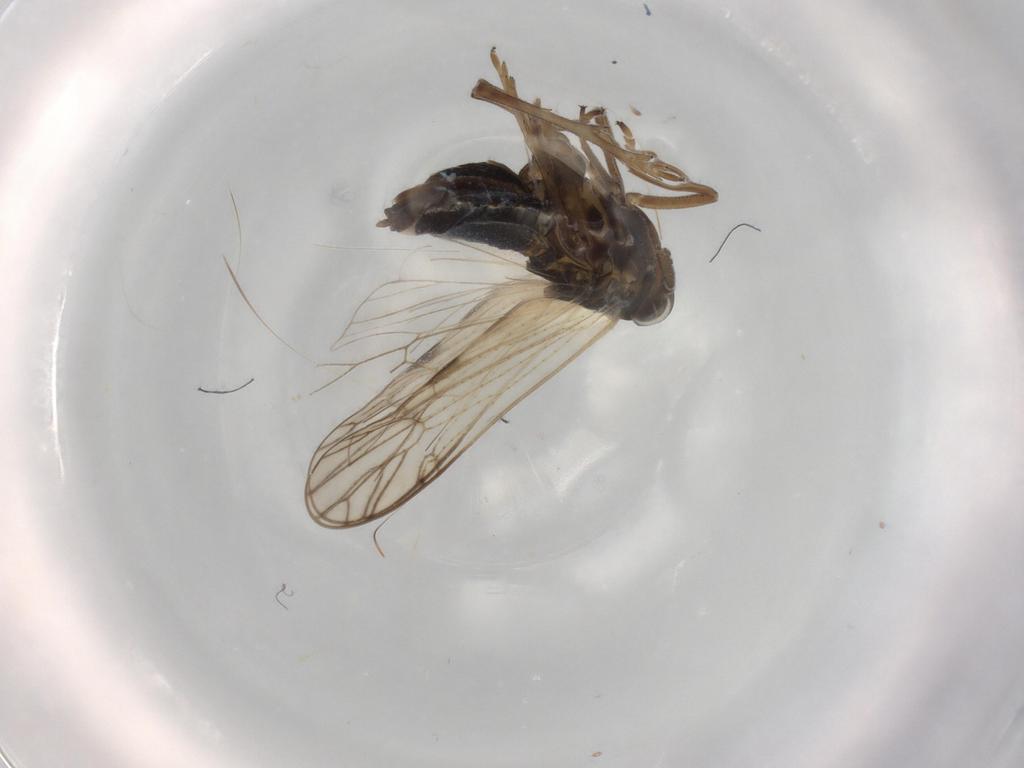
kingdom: Animalia
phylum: Arthropoda
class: Insecta
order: Hemiptera
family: Delphacidae
